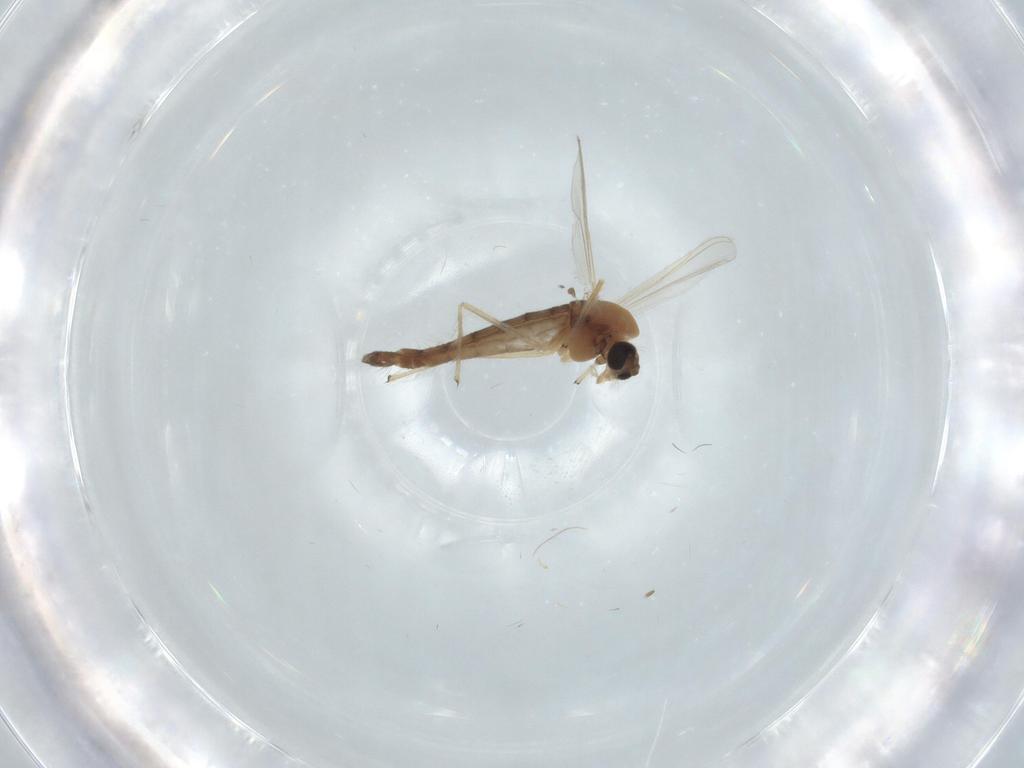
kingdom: Animalia
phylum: Arthropoda
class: Insecta
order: Diptera
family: Chironomidae
